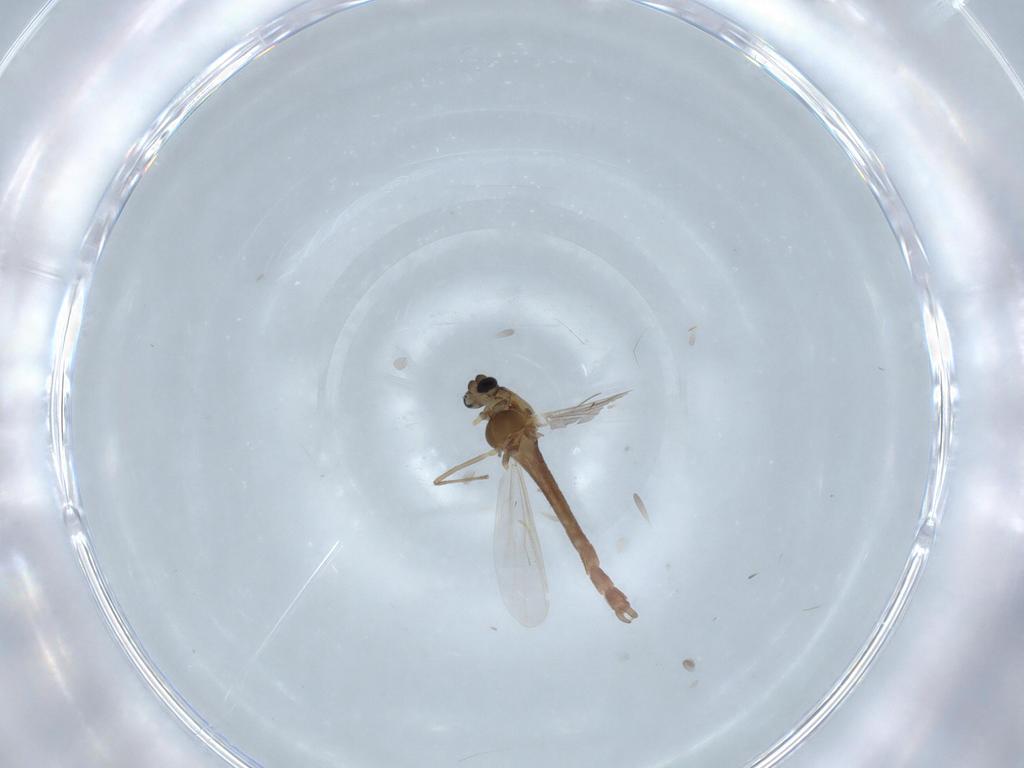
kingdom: Animalia
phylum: Arthropoda
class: Insecta
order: Diptera
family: Chironomidae
